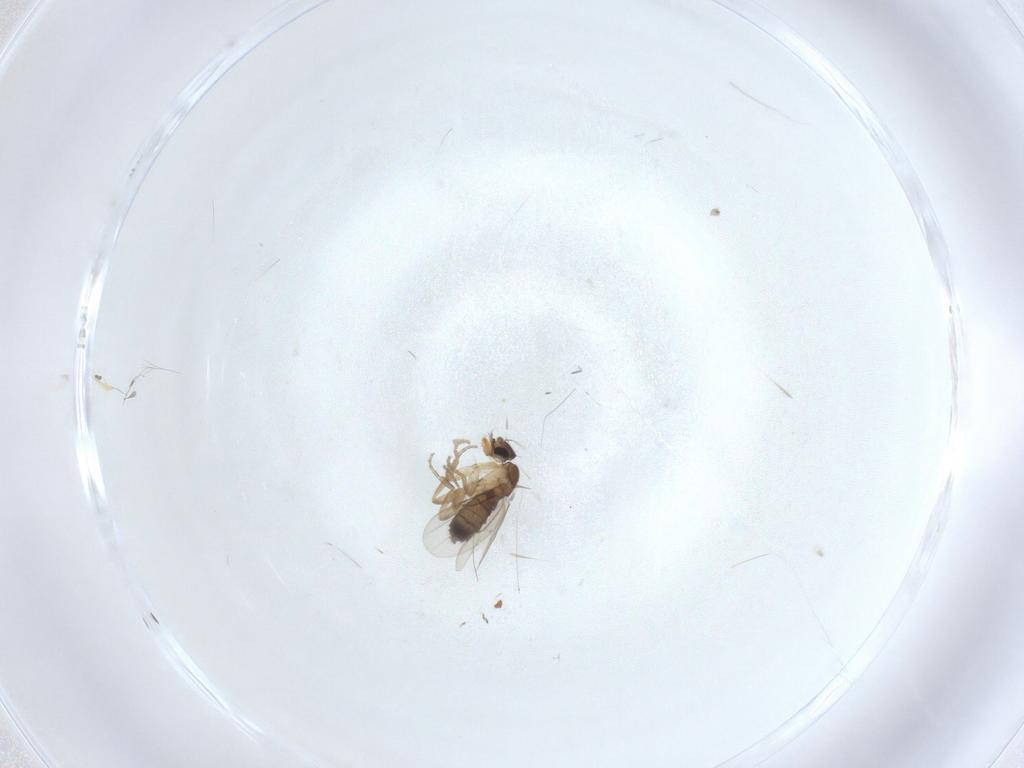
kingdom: Animalia
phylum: Arthropoda
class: Insecta
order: Diptera
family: Phoridae
